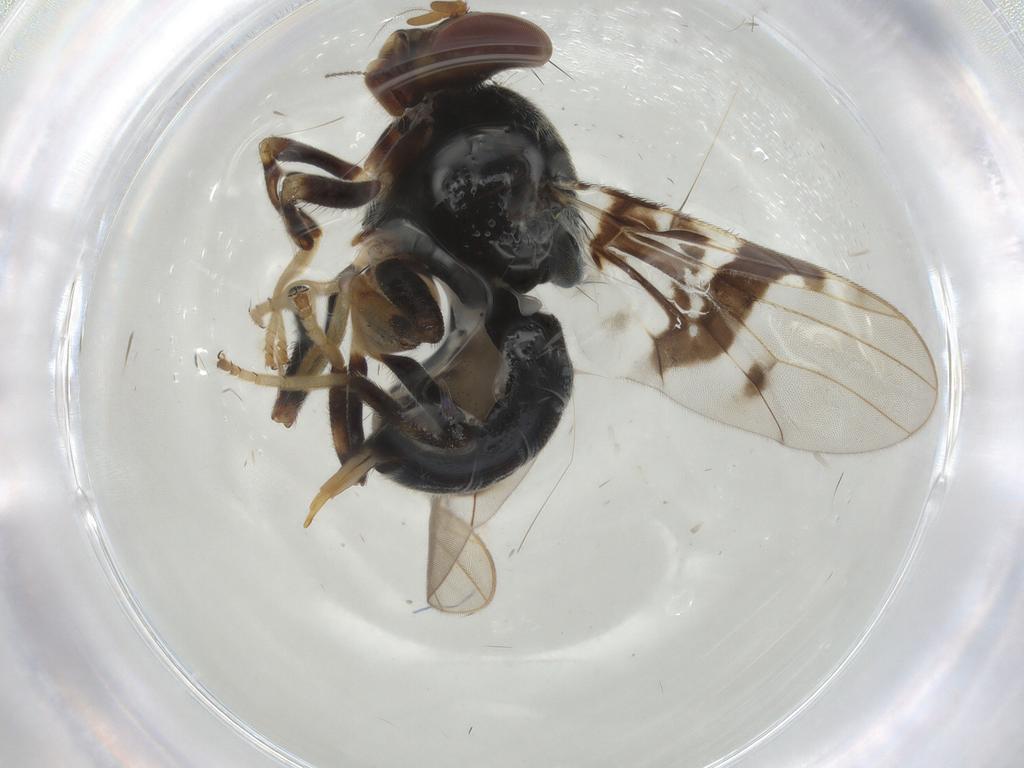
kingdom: Animalia
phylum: Arthropoda
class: Insecta
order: Diptera
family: Platystomatidae
